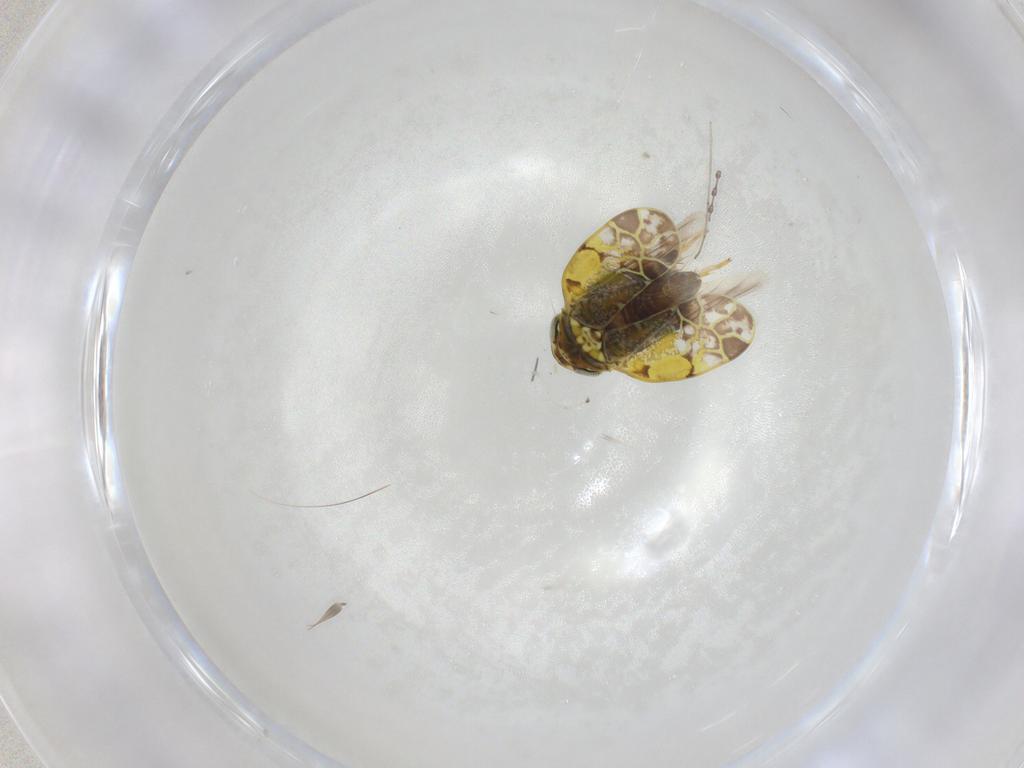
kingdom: Animalia
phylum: Arthropoda
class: Insecta
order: Hemiptera
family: Cicadellidae
